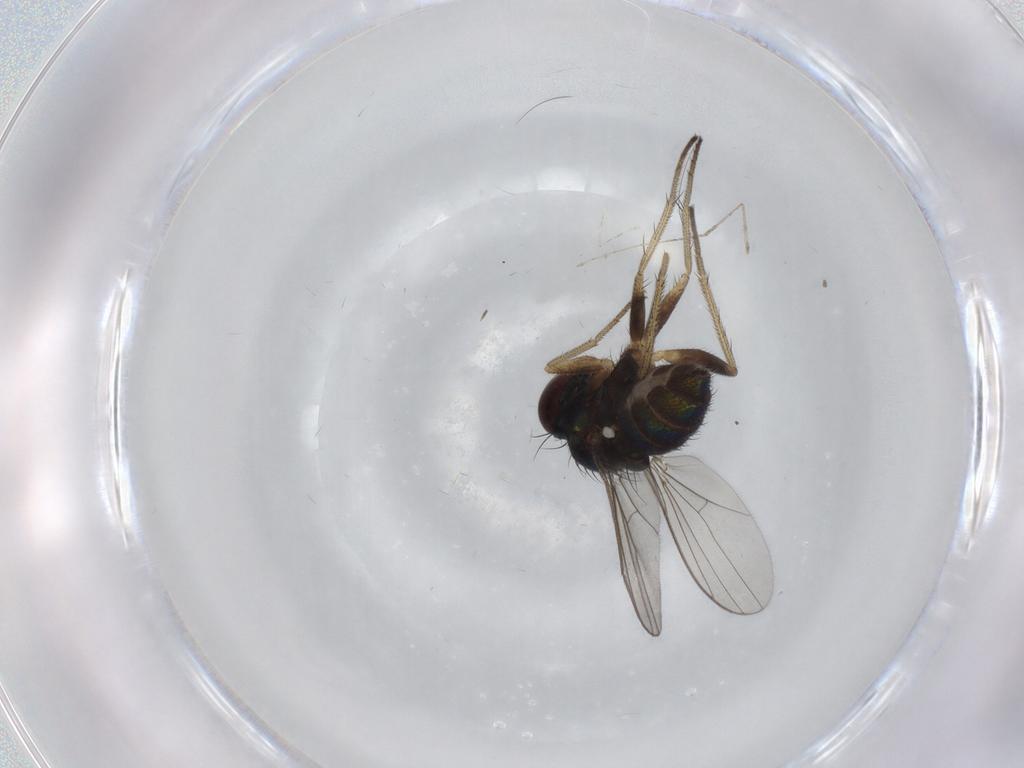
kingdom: Animalia
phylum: Arthropoda
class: Insecta
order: Diptera
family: Dolichopodidae
